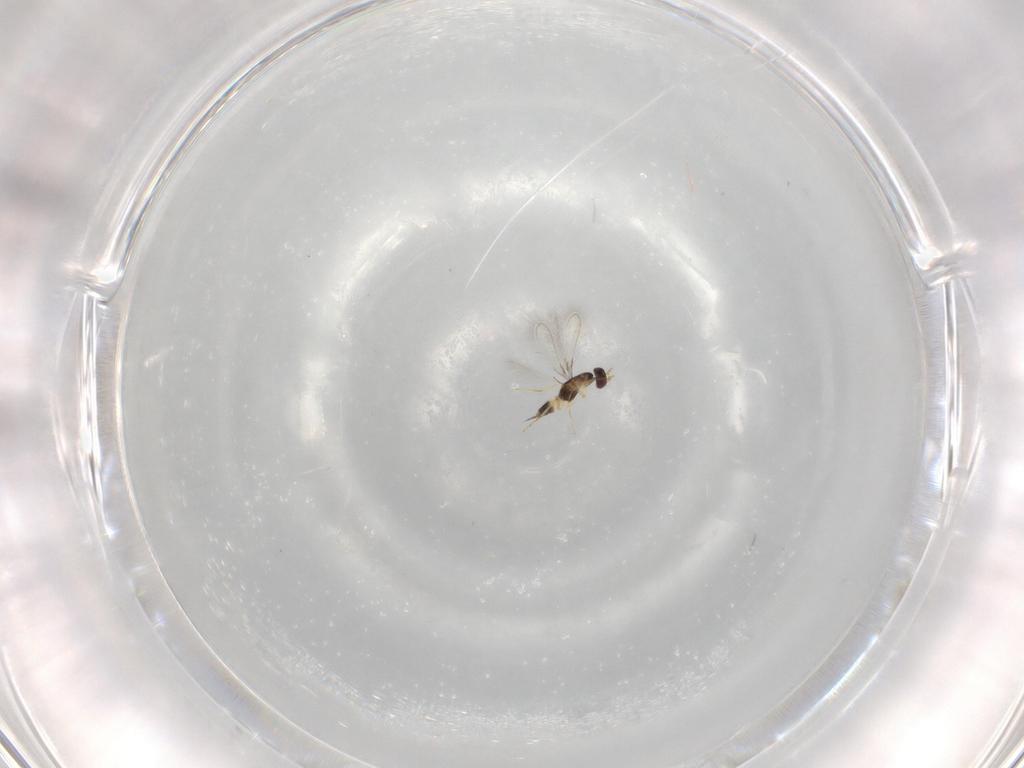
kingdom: Animalia
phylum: Arthropoda
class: Insecta
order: Hymenoptera
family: Mymaridae
